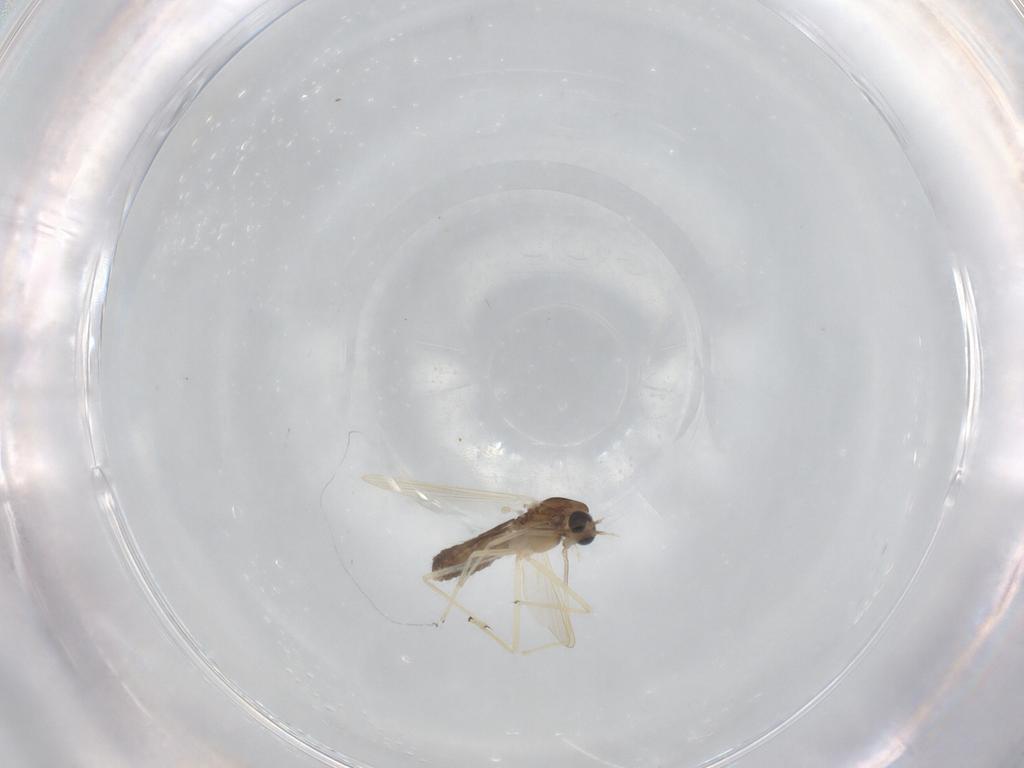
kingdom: Animalia
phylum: Arthropoda
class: Insecta
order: Diptera
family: Chironomidae
